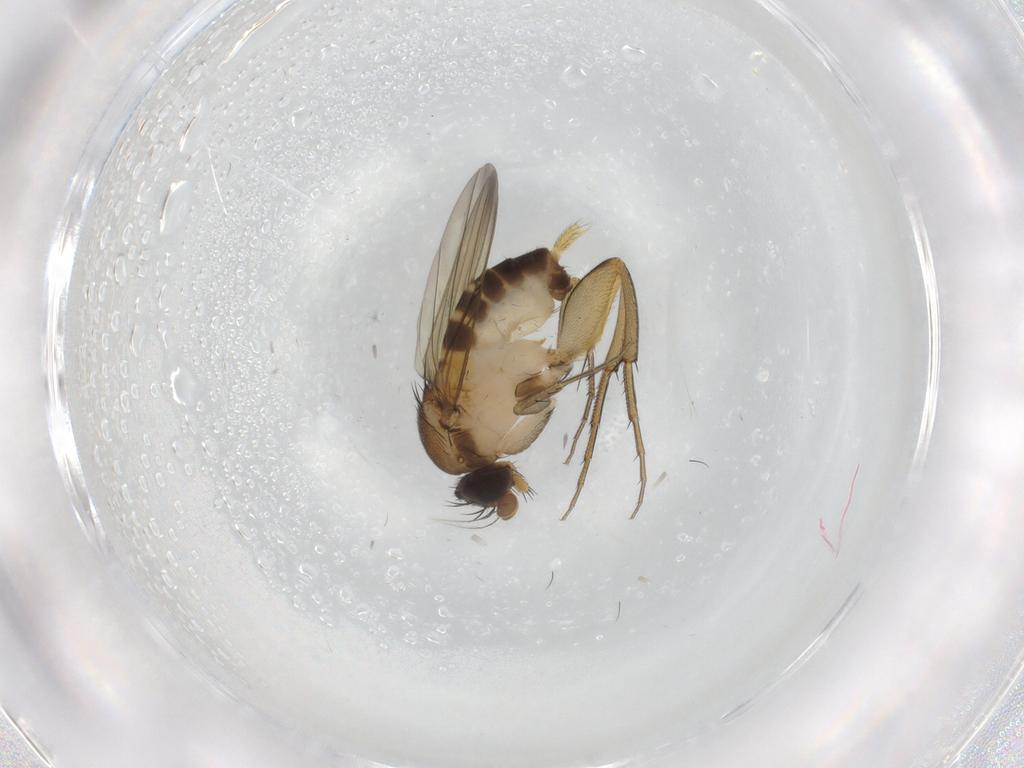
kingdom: Animalia
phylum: Arthropoda
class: Insecta
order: Diptera
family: Phoridae
